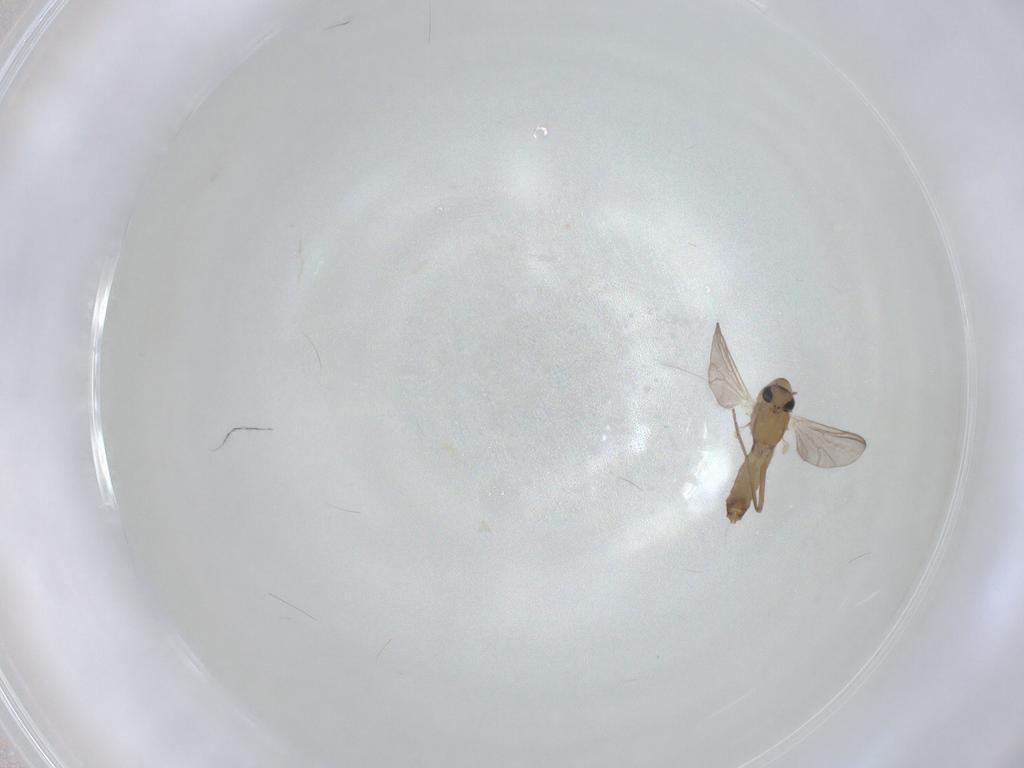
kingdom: Animalia
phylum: Arthropoda
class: Insecta
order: Diptera
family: Chironomidae
